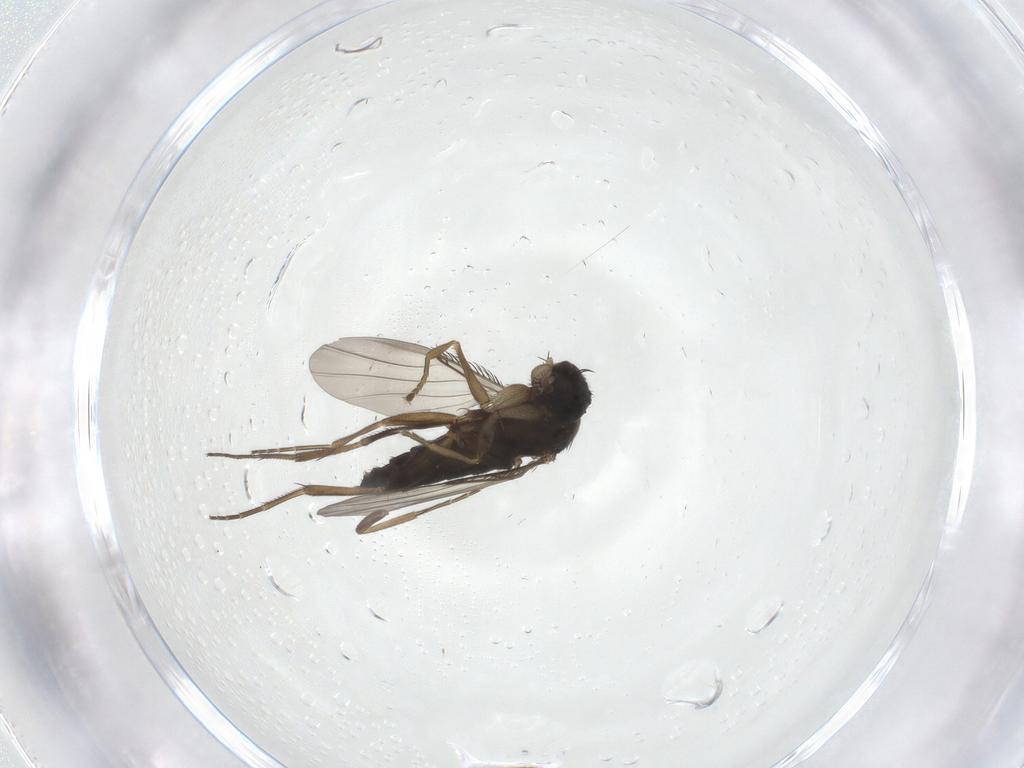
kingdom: Animalia
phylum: Arthropoda
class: Insecta
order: Diptera
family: Phoridae
